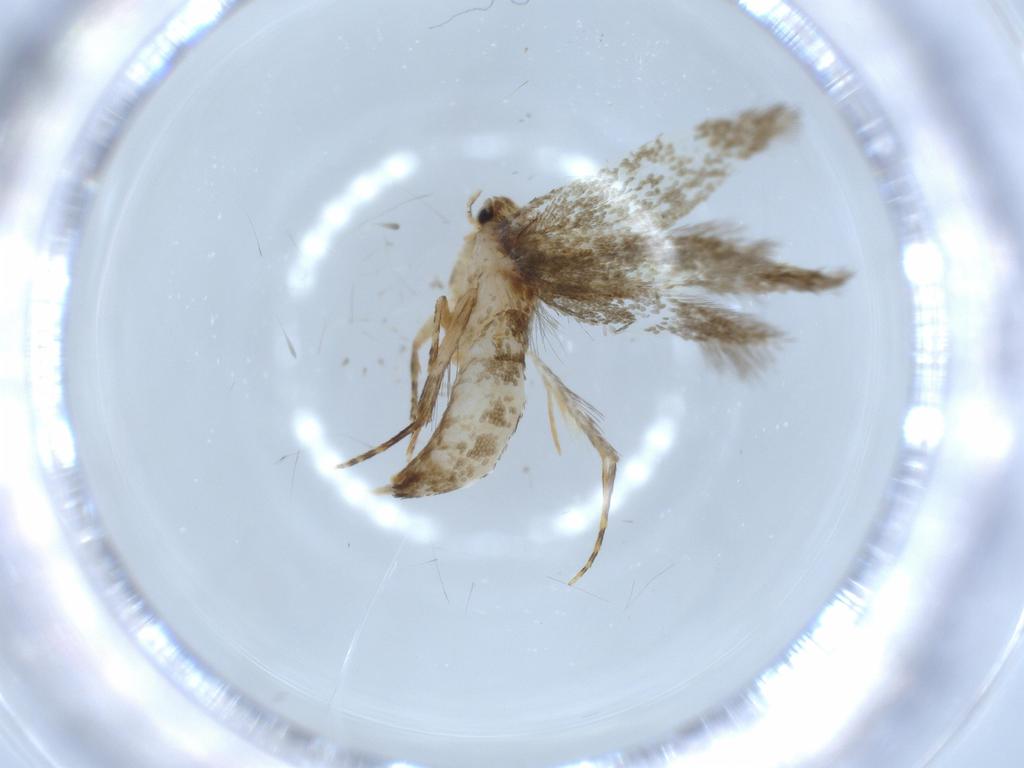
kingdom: Animalia
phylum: Arthropoda
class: Insecta
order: Lepidoptera
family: Tineidae
